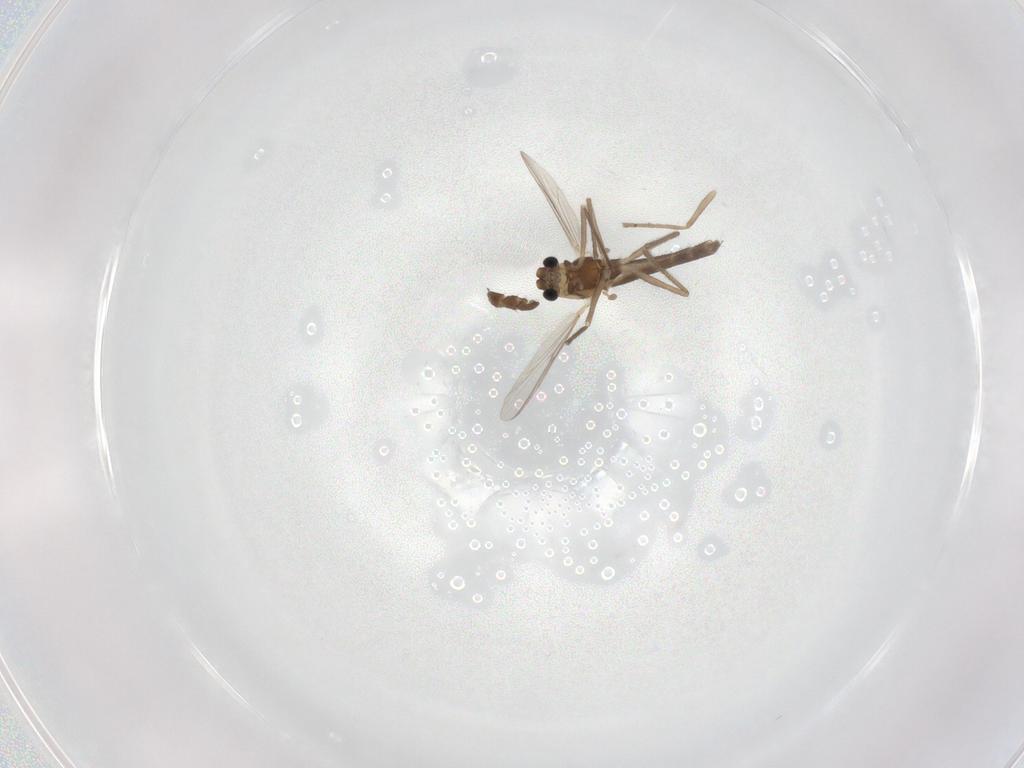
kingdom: Animalia
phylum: Arthropoda
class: Insecta
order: Diptera
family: Chironomidae
